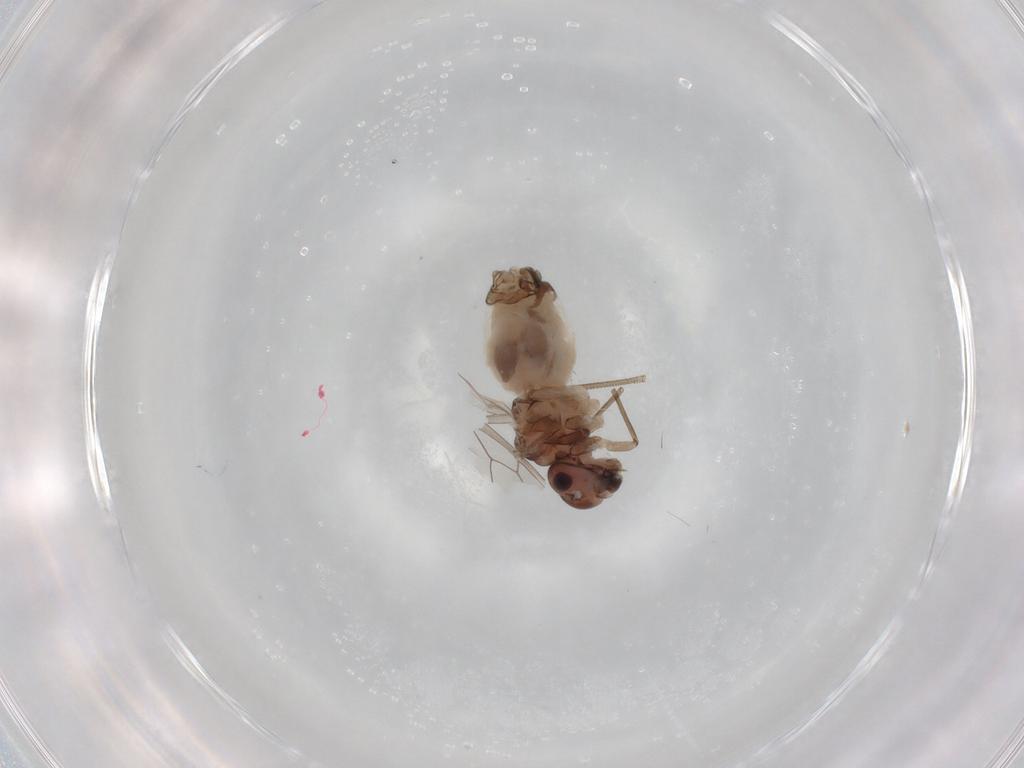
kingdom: Animalia
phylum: Arthropoda
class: Insecta
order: Psocodea
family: Peripsocidae
